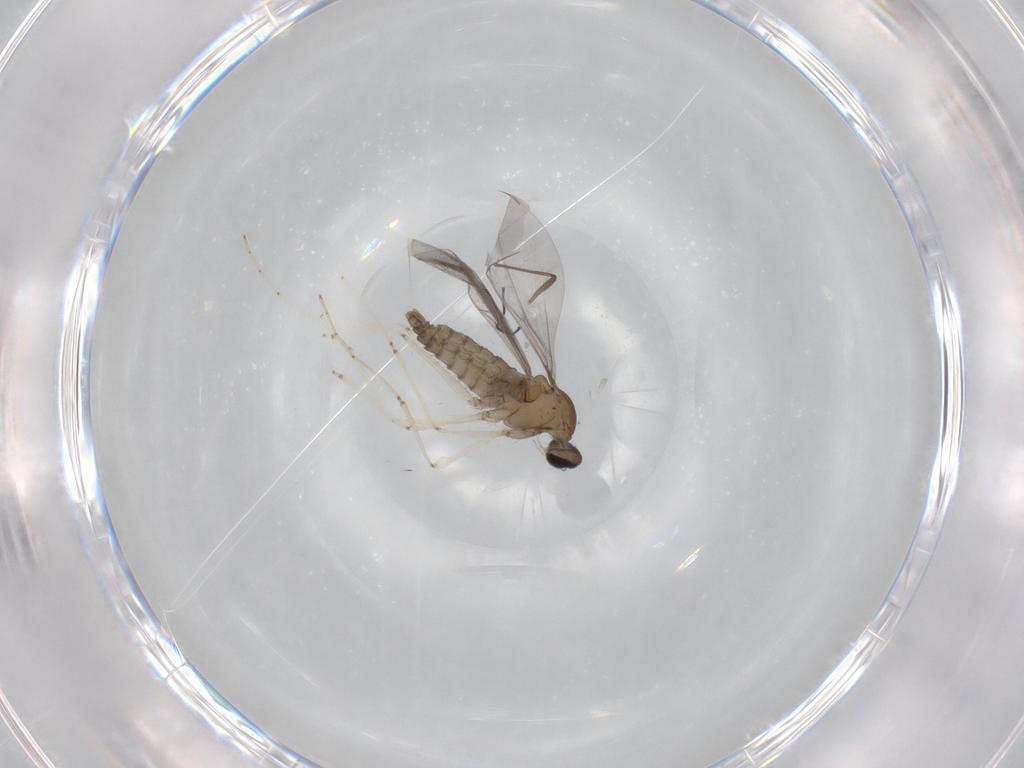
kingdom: Animalia
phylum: Arthropoda
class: Insecta
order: Diptera
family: Cecidomyiidae
